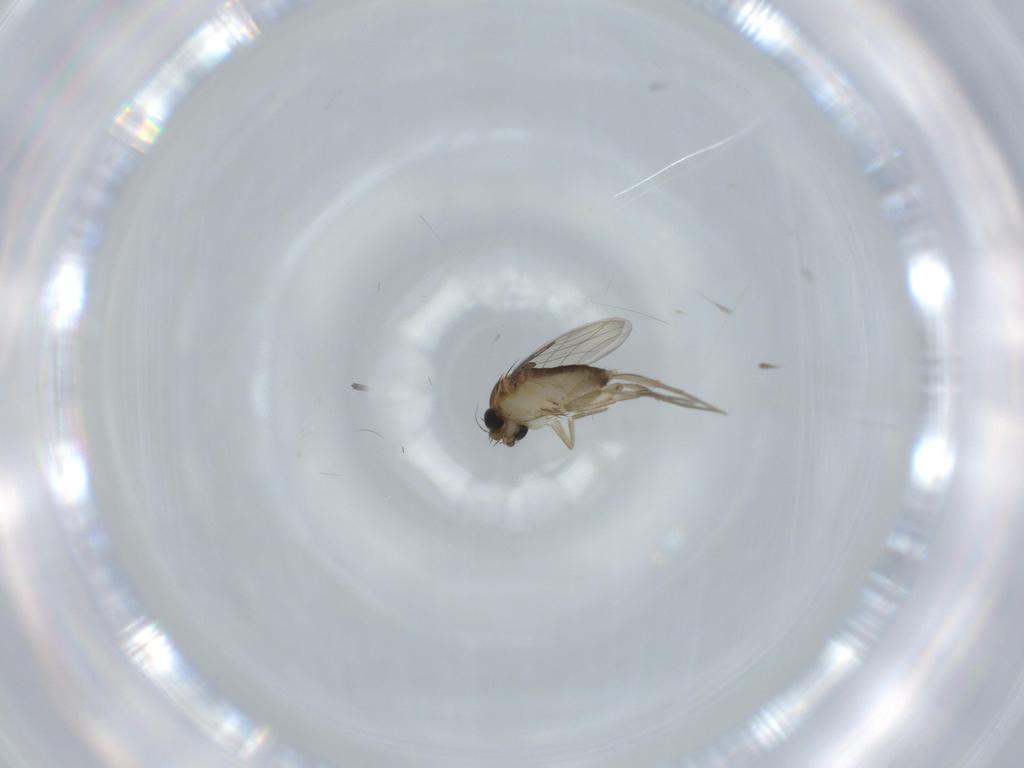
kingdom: Animalia
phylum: Arthropoda
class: Insecta
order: Diptera
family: Phoridae
